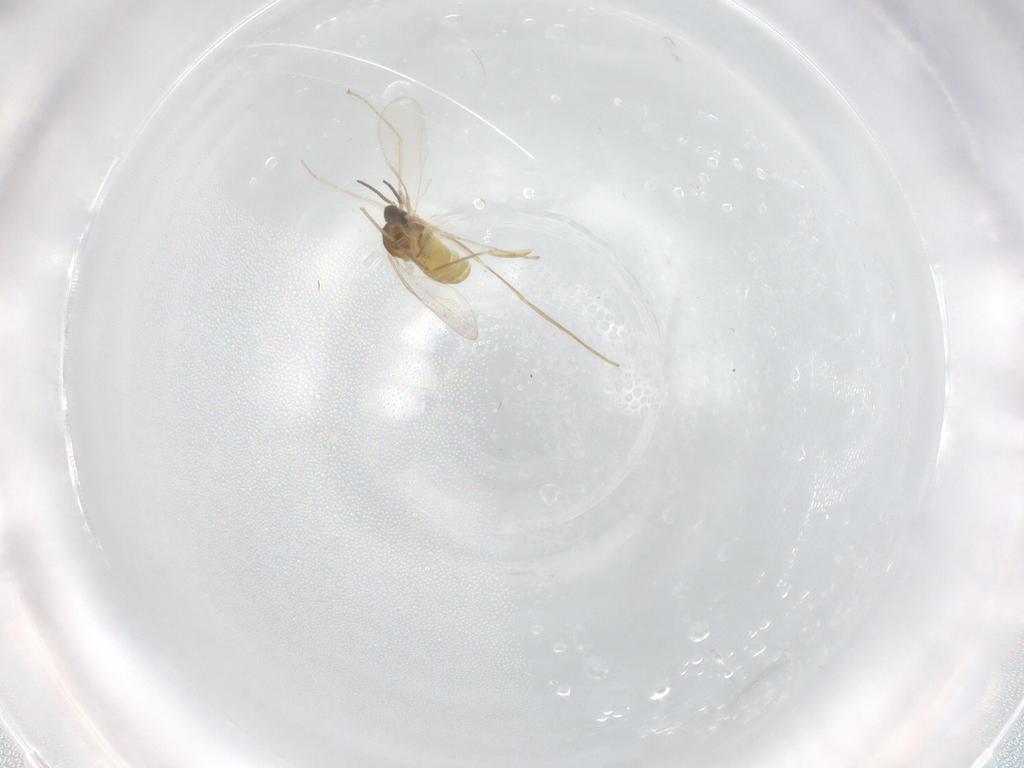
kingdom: Animalia
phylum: Arthropoda
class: Insecta
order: Diptera
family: Cecidomyiidae
